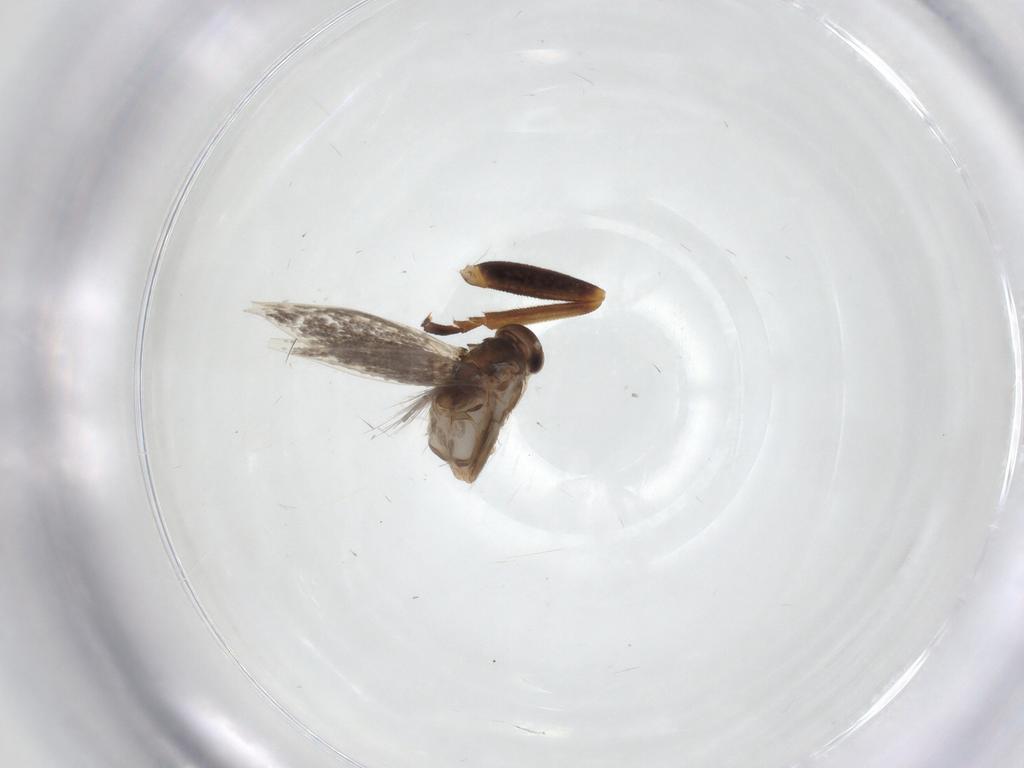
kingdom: Animalia
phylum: Arthropoda
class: Insecta
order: Lepidoptera
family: Elachistidae
